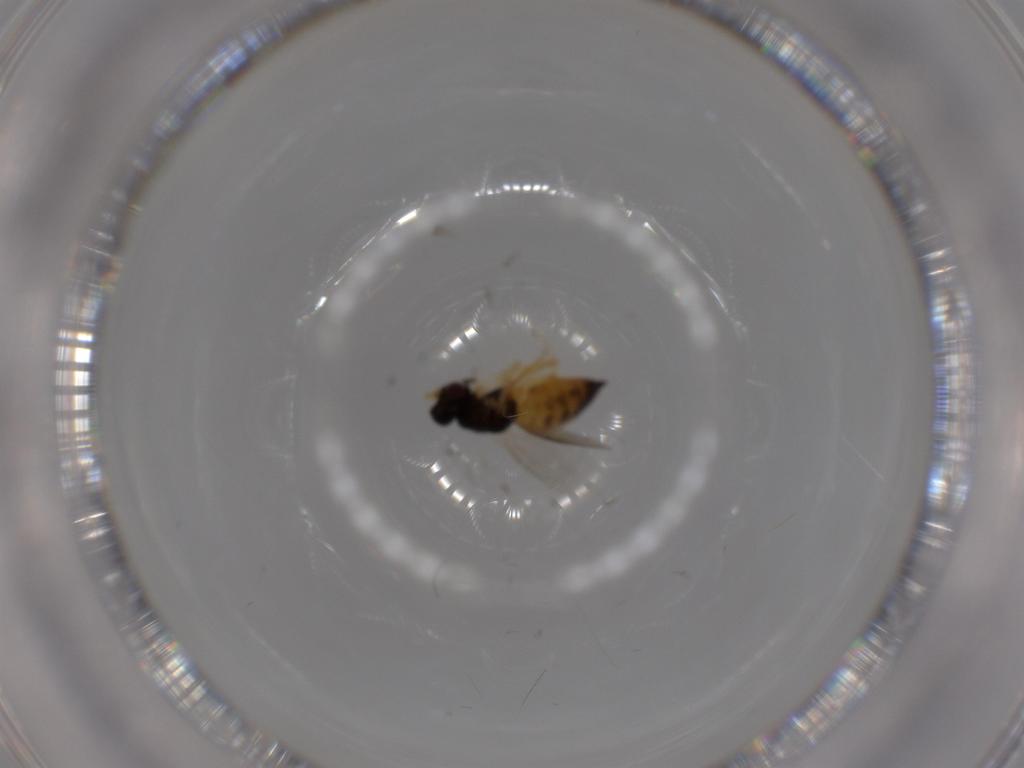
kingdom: Animalia
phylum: Arthropoda
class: Insecta
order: Hymenoptera
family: Eulophidae
